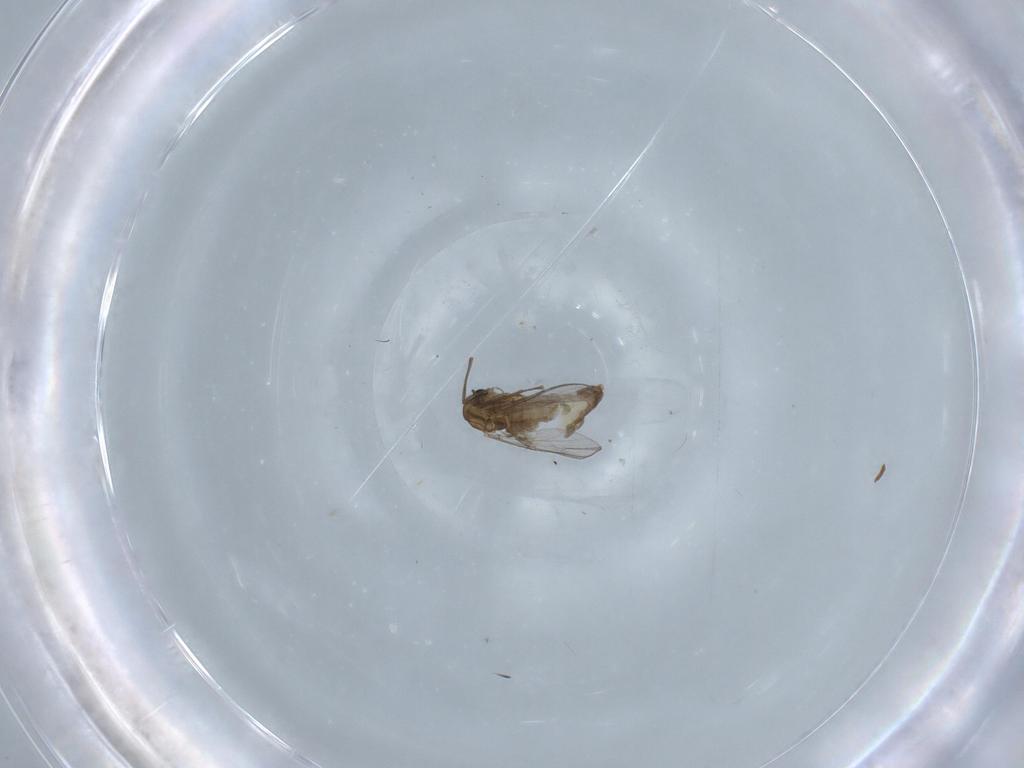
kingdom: Animalia
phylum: Arthropoda
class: Insecta
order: Diptera
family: Chironomidae
